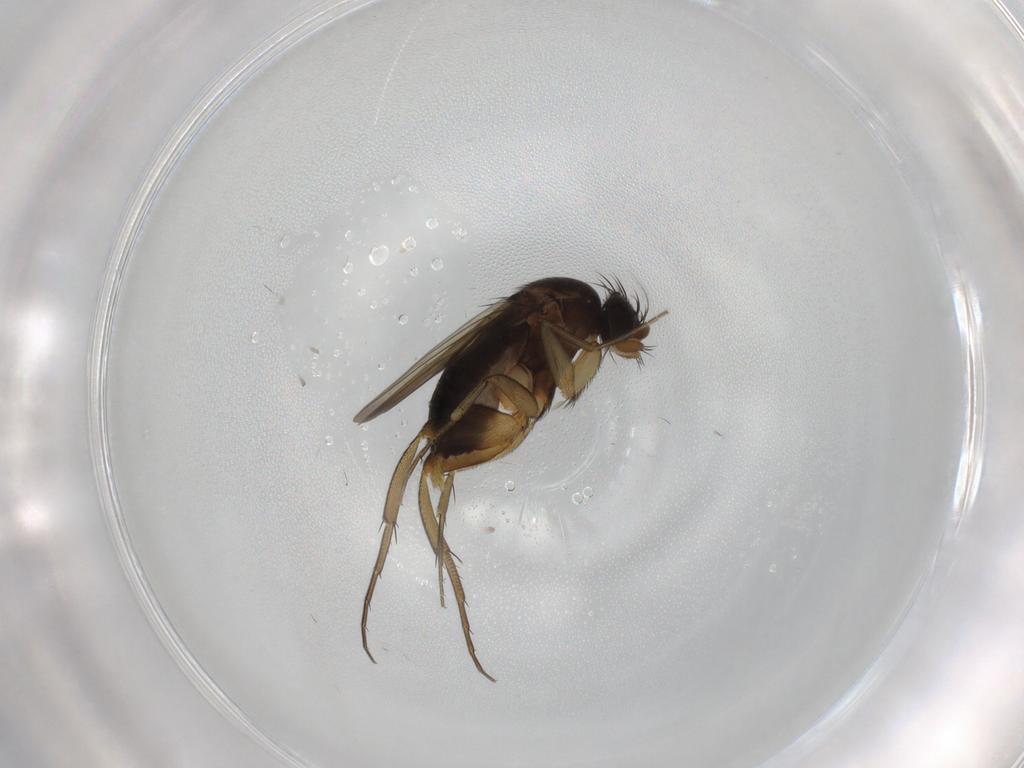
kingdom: Animalia
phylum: Arthropoda
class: Insecta
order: Diptera
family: Phoridae
